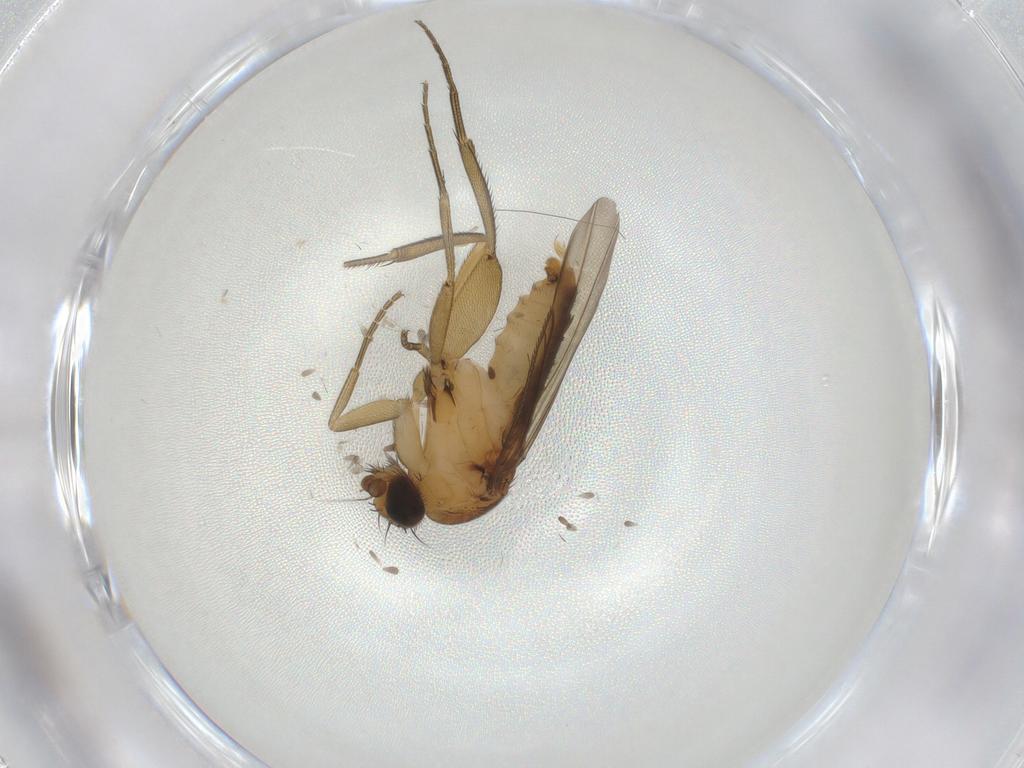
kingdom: Animalia
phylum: Arthropoda
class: Insecta
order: Diptera
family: Phoridae
